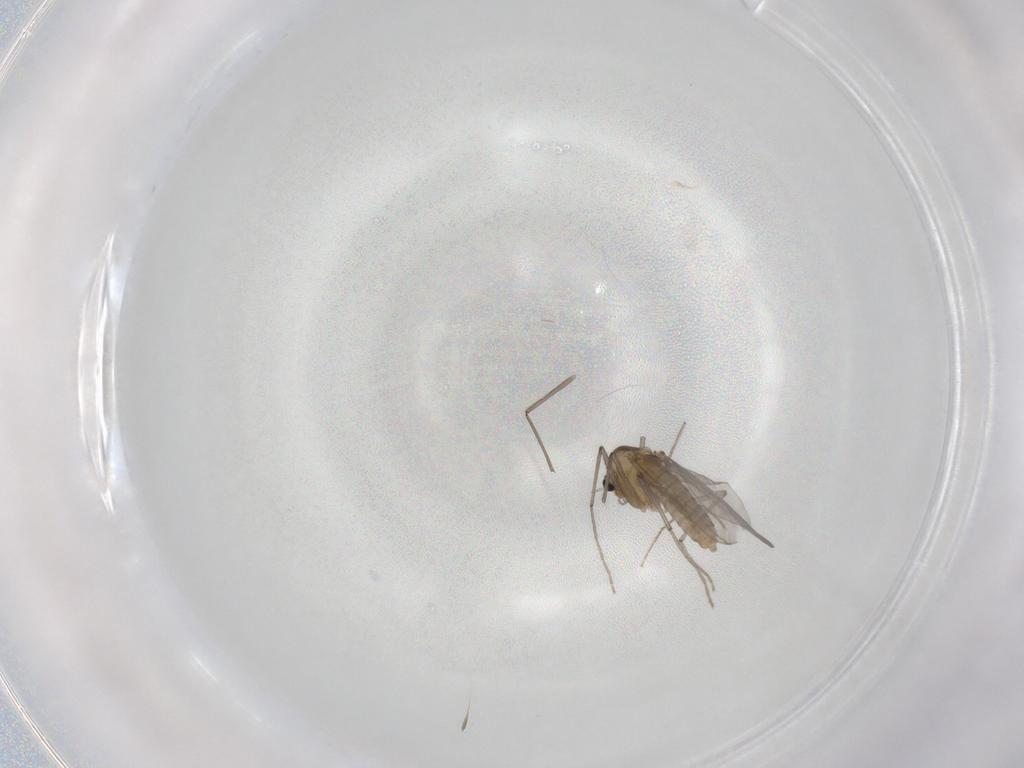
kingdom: Animalia
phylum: Arthropoda
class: Insecta
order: Diptera
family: Chironomidae
